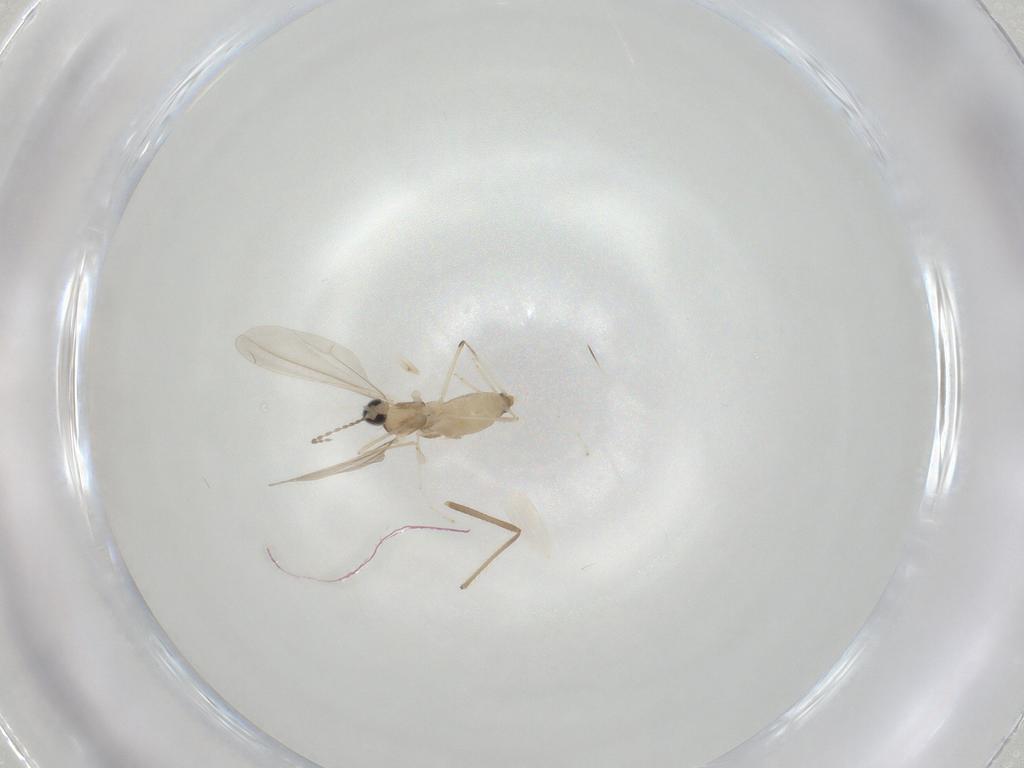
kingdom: Animalia
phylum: Arthropoda
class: Insecta
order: Diptera
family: Cecidomyiidae
